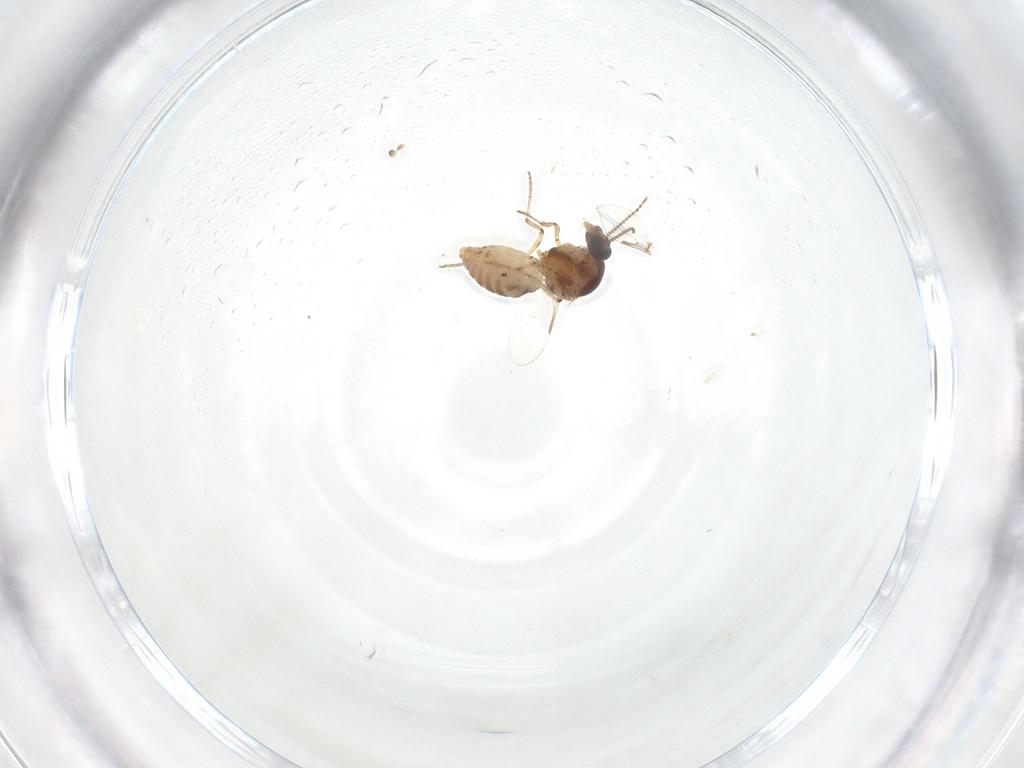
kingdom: Animalia
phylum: Arthropoda
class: Insecta
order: Diptera
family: Ceratopogonidae
